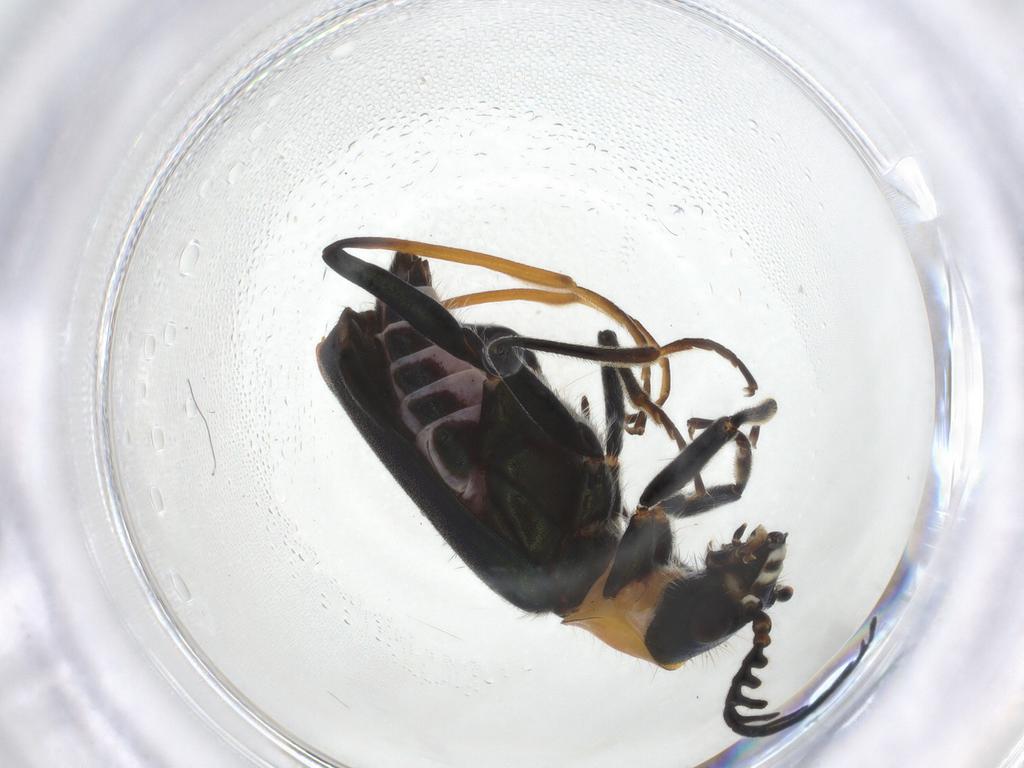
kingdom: Animalia
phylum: Arthropoda
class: Insecta
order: Coleoptera
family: Melyridae
